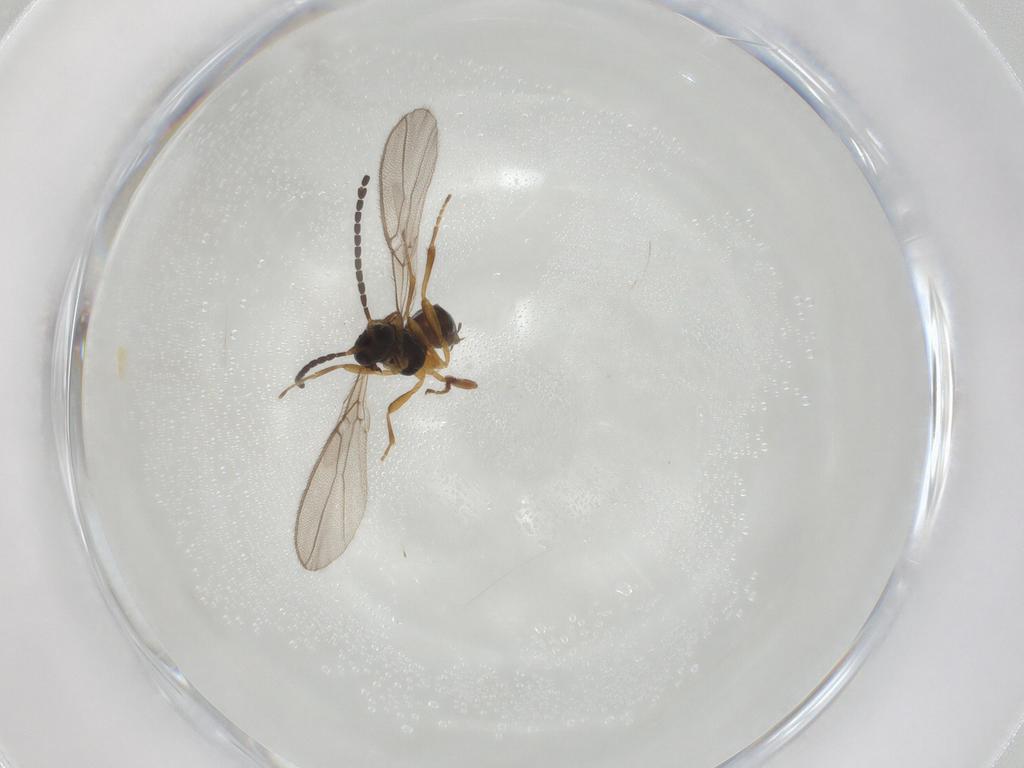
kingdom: Animalia
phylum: Arthropoda
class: Insecta
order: Hymenoptera
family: Braconidae
